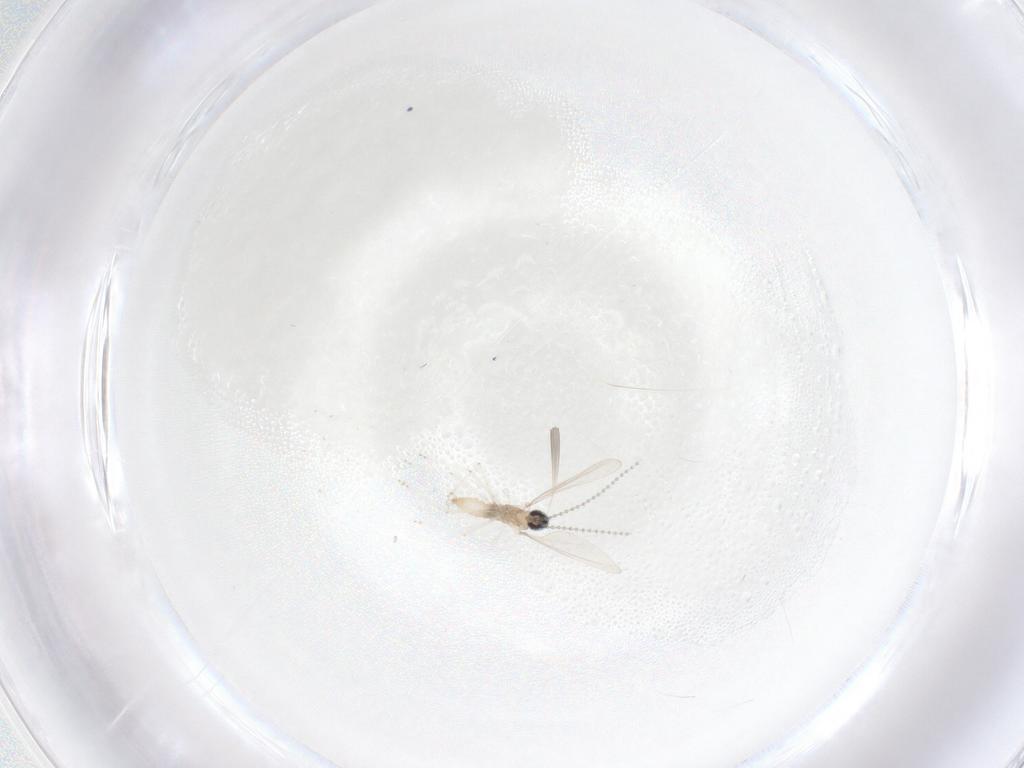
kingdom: Animalia
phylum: Arthropoda
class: Insecta
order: Diptera
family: Cecidomyiidae
